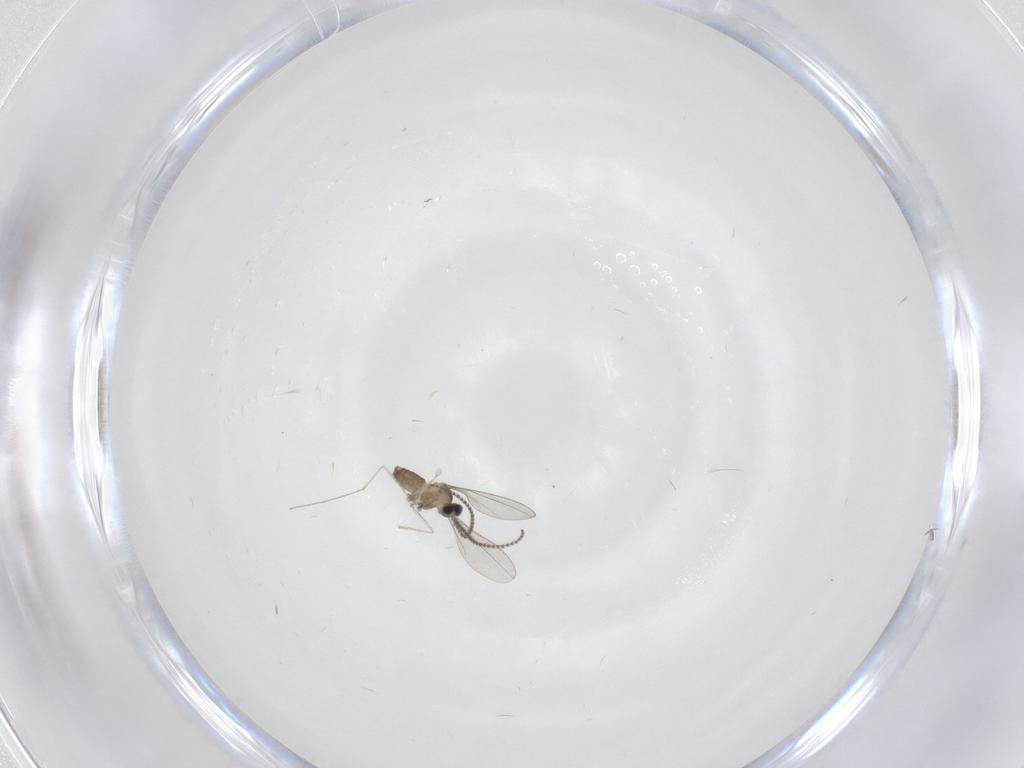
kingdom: Animalia
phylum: Arthropoda
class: Insecta
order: Diptera
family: Cecidomyiidae
